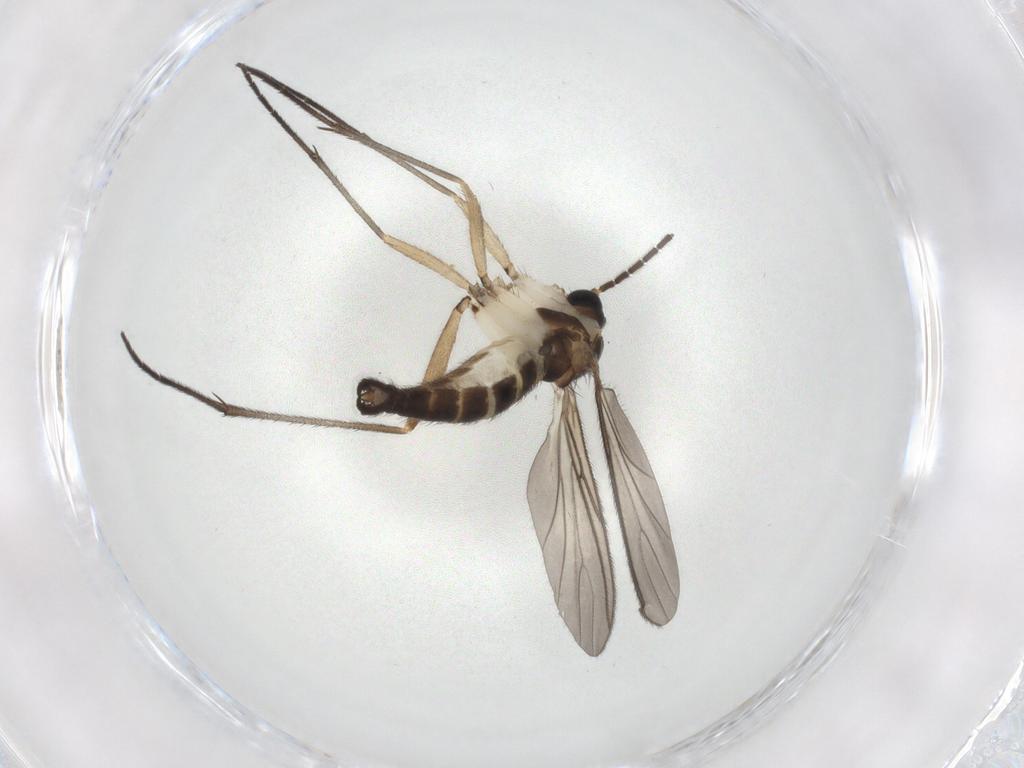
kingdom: Animalia
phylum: Arthropoda
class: Insecta
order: Diptera
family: Sciaridae
